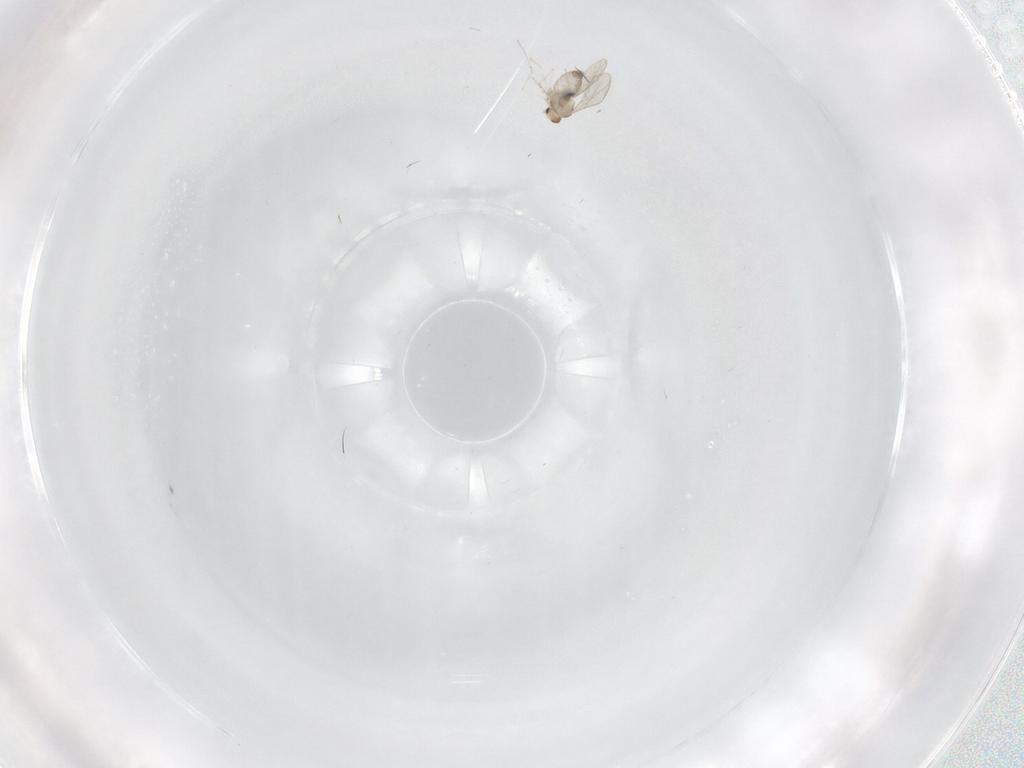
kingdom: Animalia
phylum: Arthropoda
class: Insecta
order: Diptera
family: Cecidomyiidae
